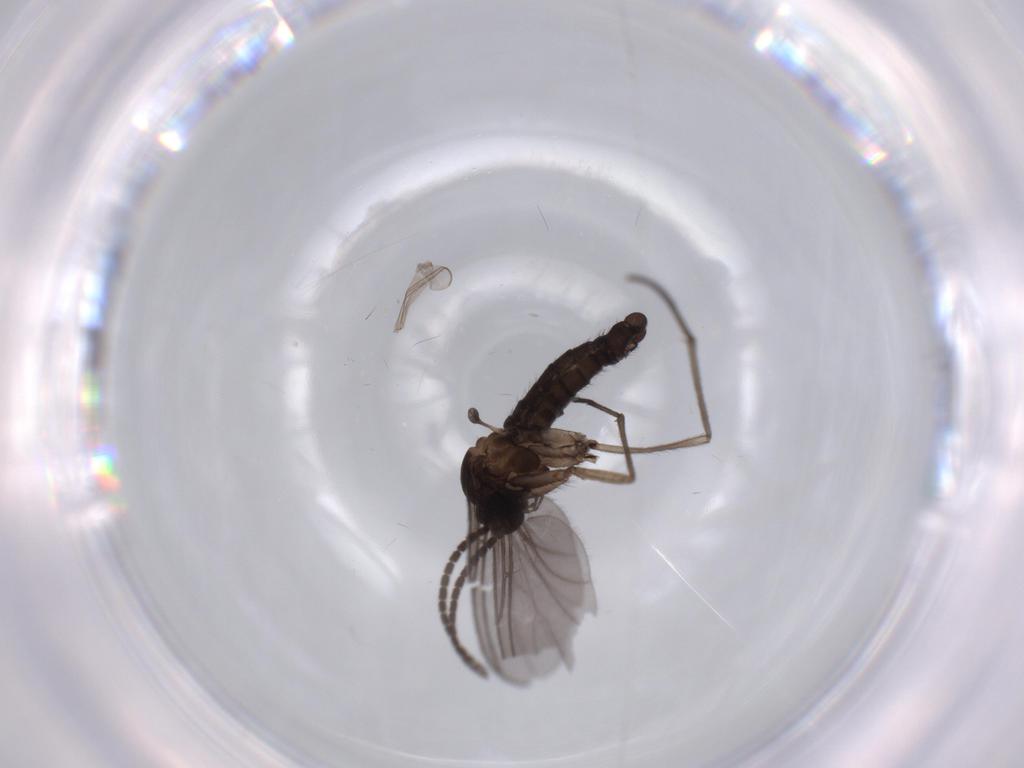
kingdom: Animalia
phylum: Arthropoda
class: Insecta
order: Diptera
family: Sciaridae
